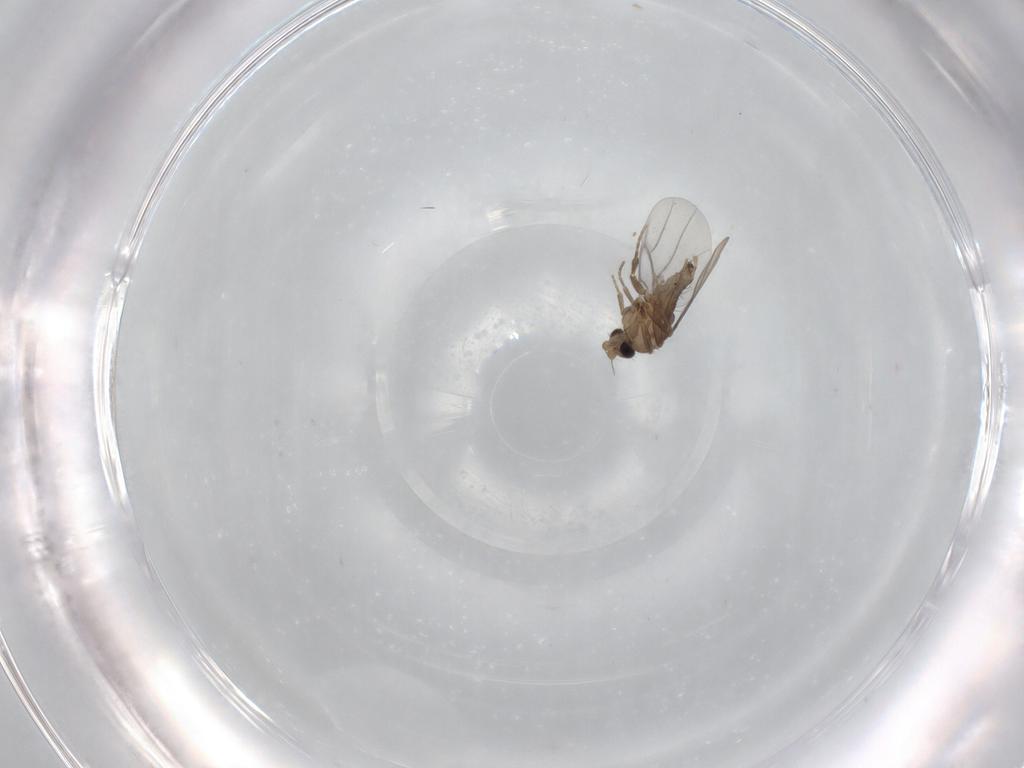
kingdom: Animalia
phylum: Arthropoda
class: Insecta
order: Diptera
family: Limoniidae
